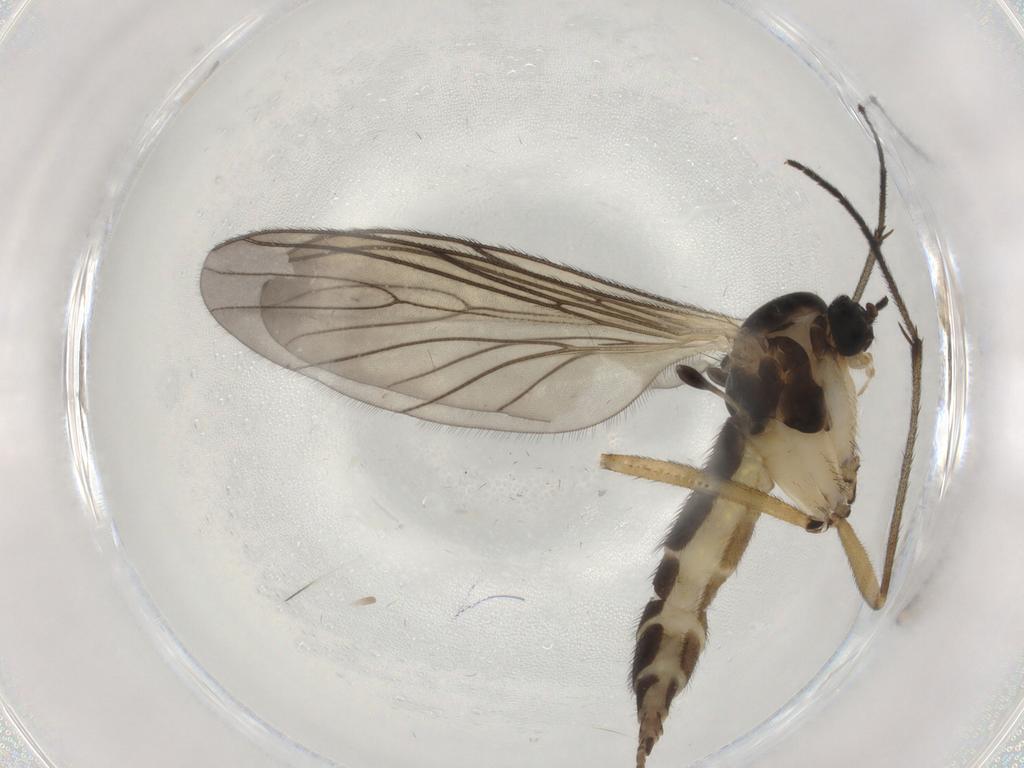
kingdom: Animalia
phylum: Arthropoda
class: Insecta
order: Diptera
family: Sciaridae
